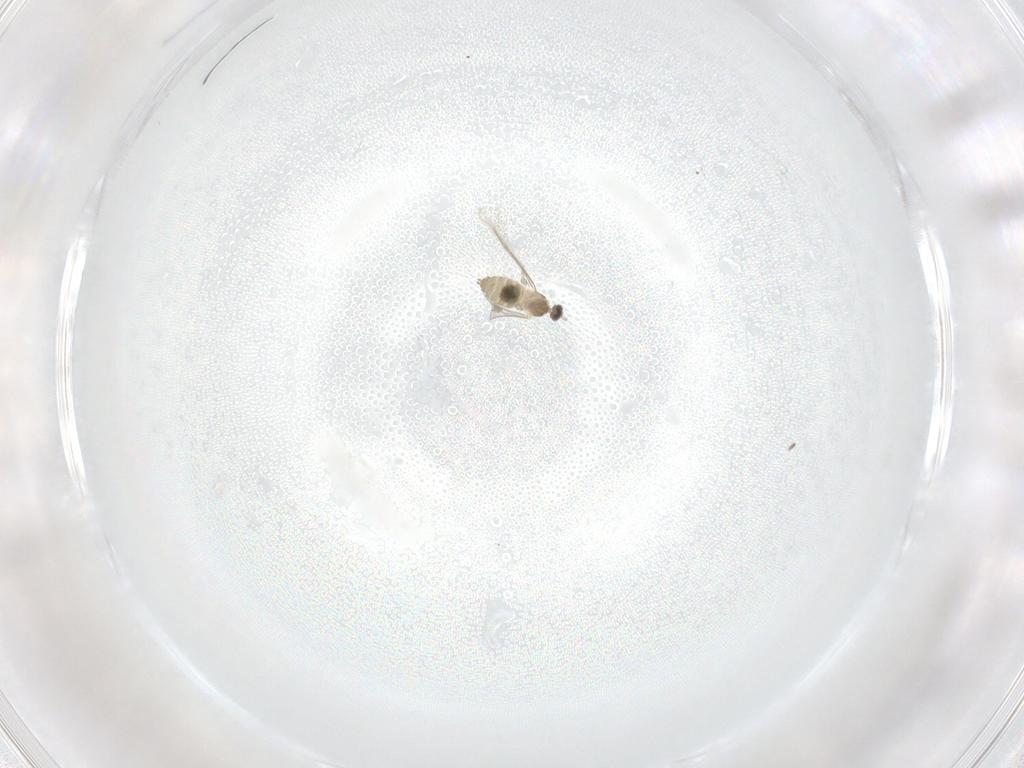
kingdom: Animalia
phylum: Arthropoda
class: Insecta
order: Diptera
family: Cecidomyiidae
